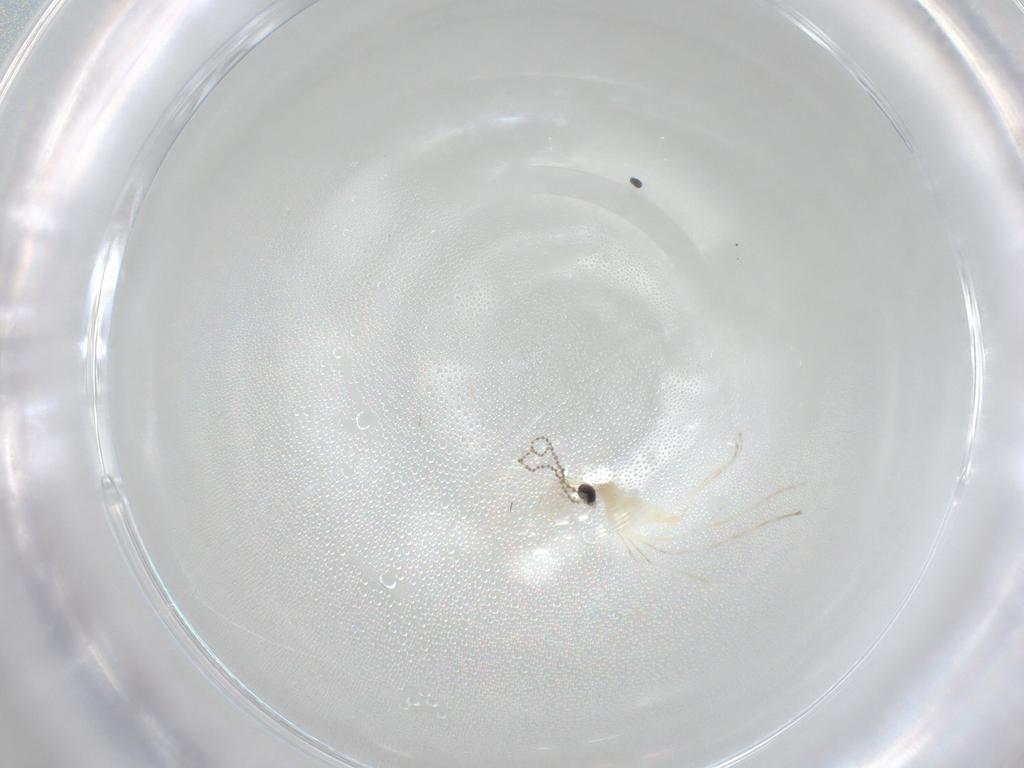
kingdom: Animalia
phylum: Arthropoda
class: Insecta
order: Diptera
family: Cecidomyiidae
